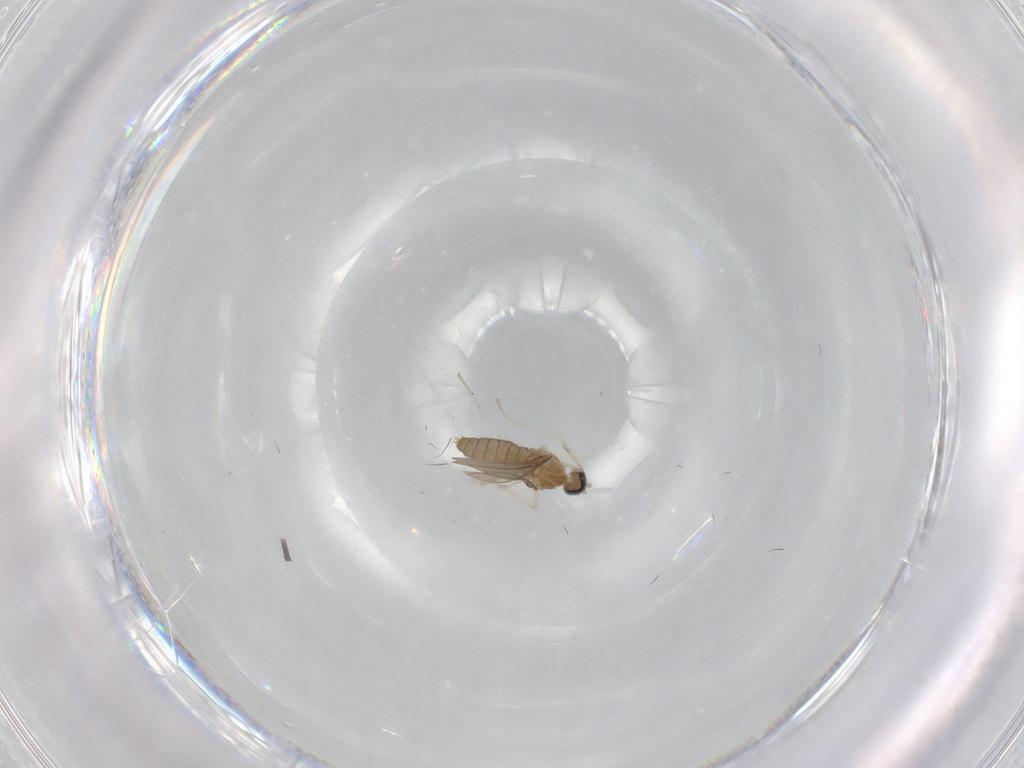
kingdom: Animalia
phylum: Arthropoda
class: Insecta
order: Diptera
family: Cecidomyiidae
